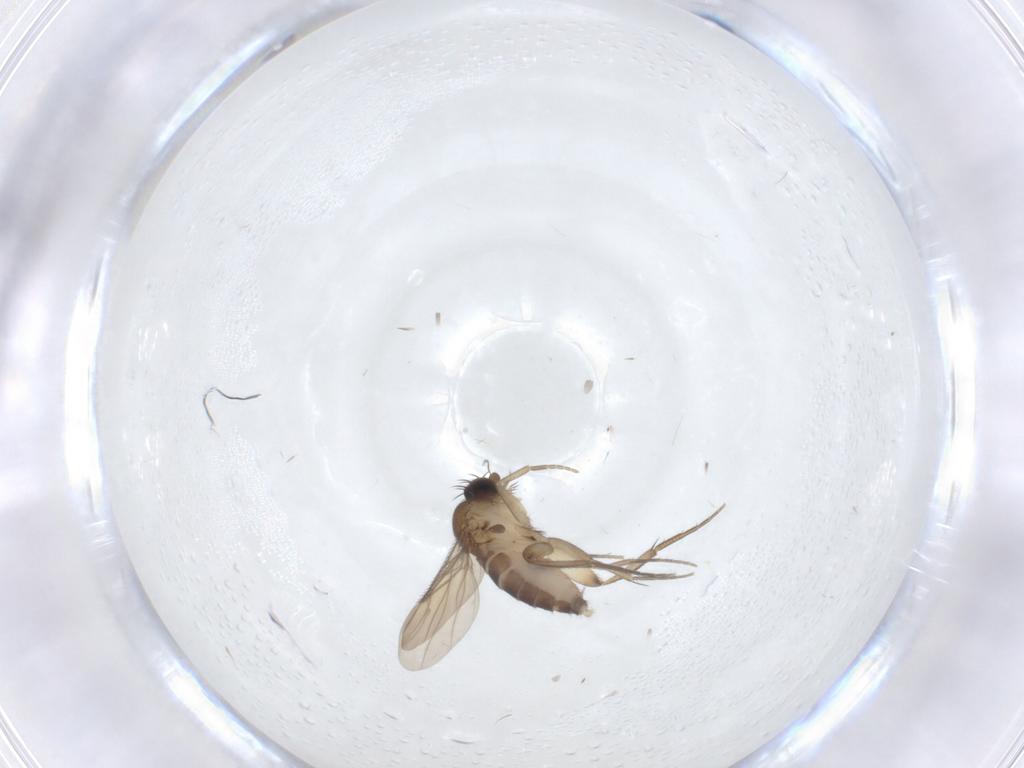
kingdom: Animalia
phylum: Arthropoda
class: Insecta
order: Diptera
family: Phoridae
